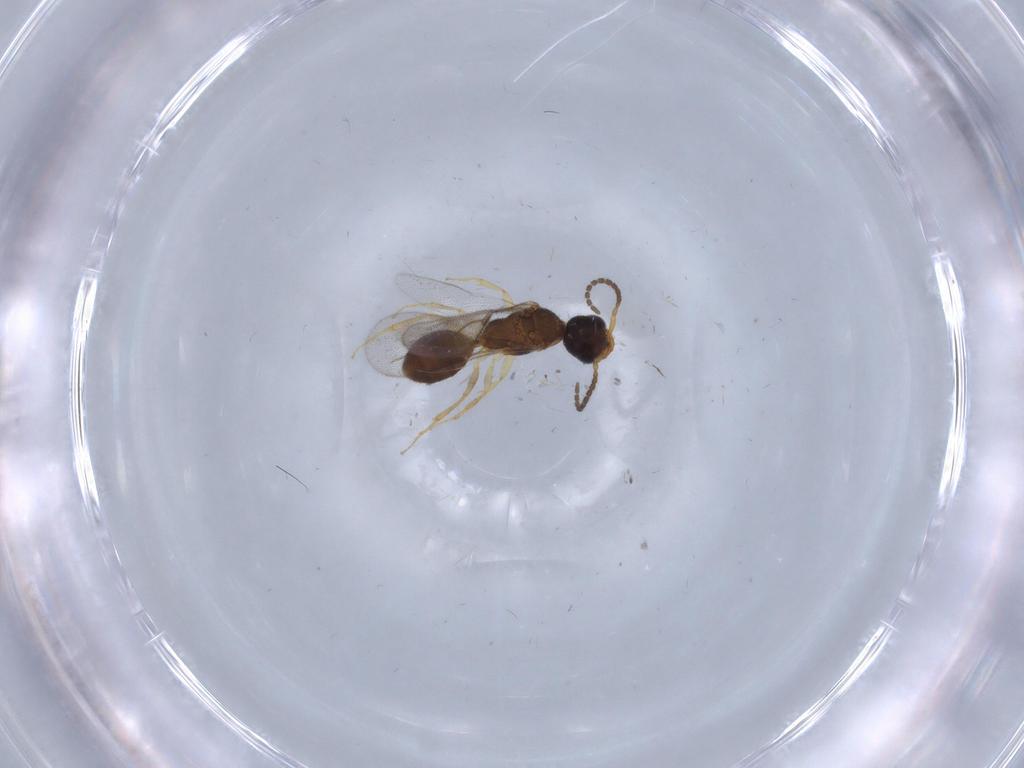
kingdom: Animalia
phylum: Arthropoda
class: Insecta
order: Hymenoptera
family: Bethylidae
